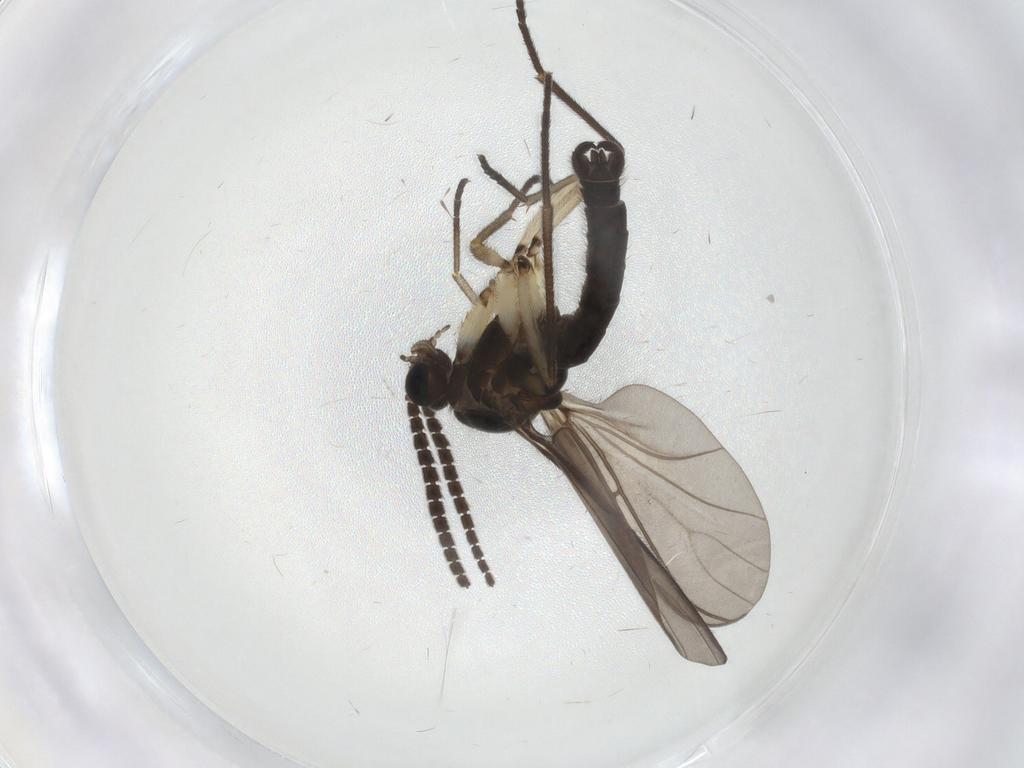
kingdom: Animalia
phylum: Arthropoda
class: Insecta
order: Diptera
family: Sciaridae
